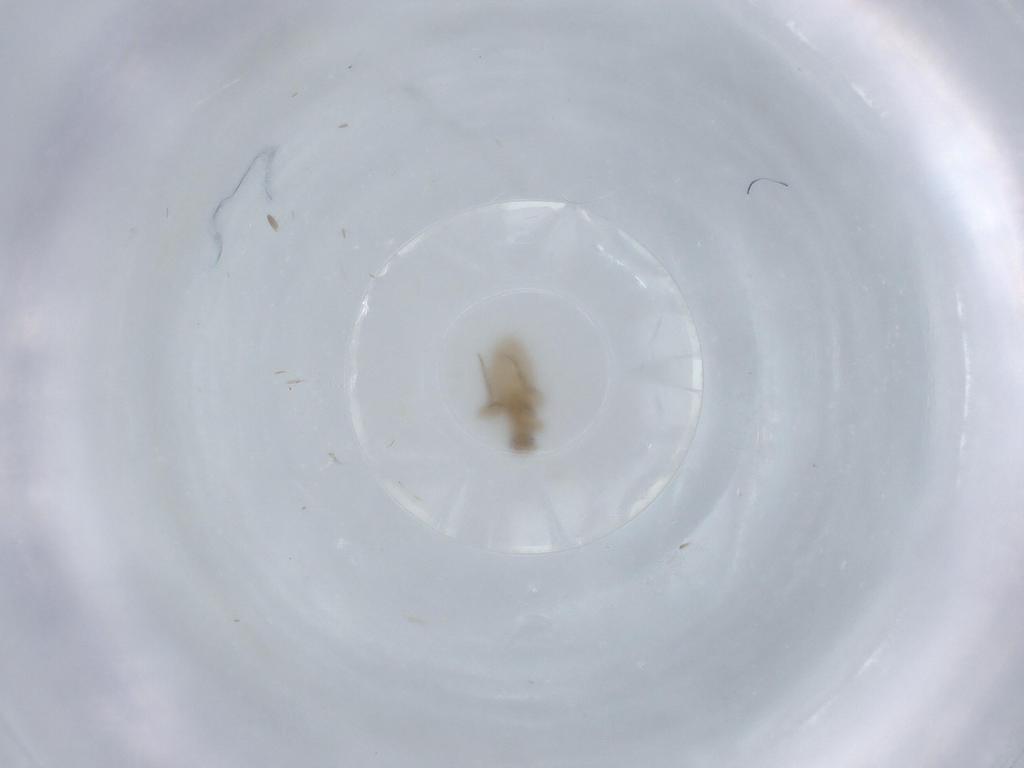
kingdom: Animalia
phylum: Arthropoda
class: Insecta
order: Diptera
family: Phoridae
